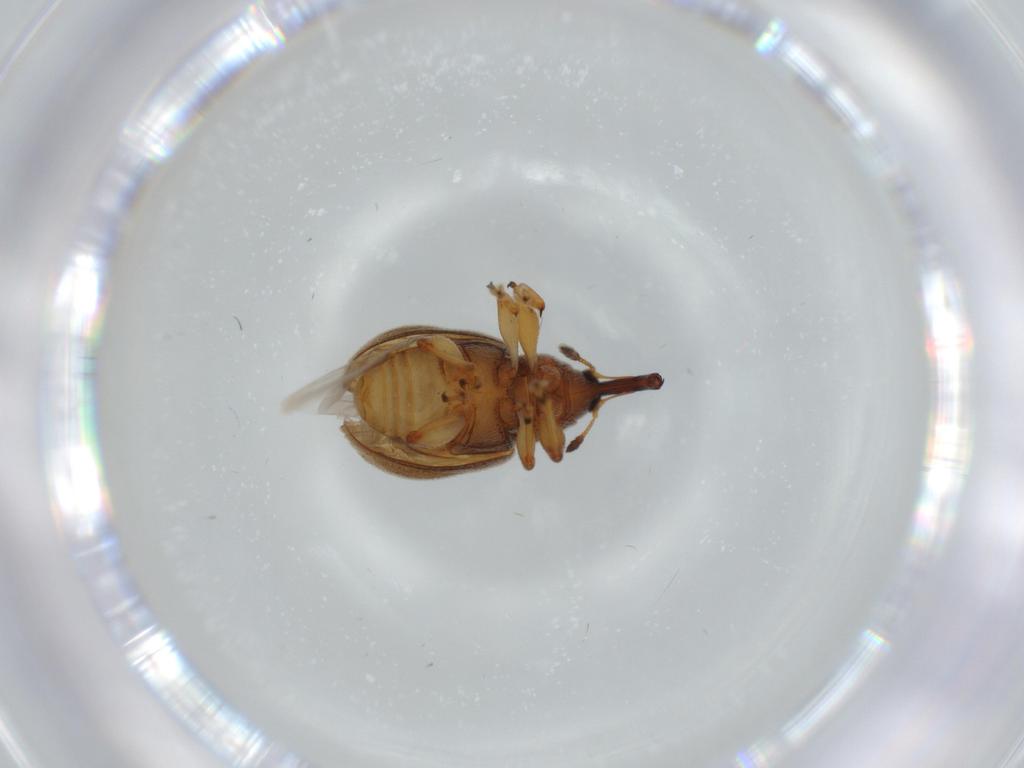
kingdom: Animalia
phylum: Arthropoda
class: Insecta
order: Coleoptera
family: Curculionidae
